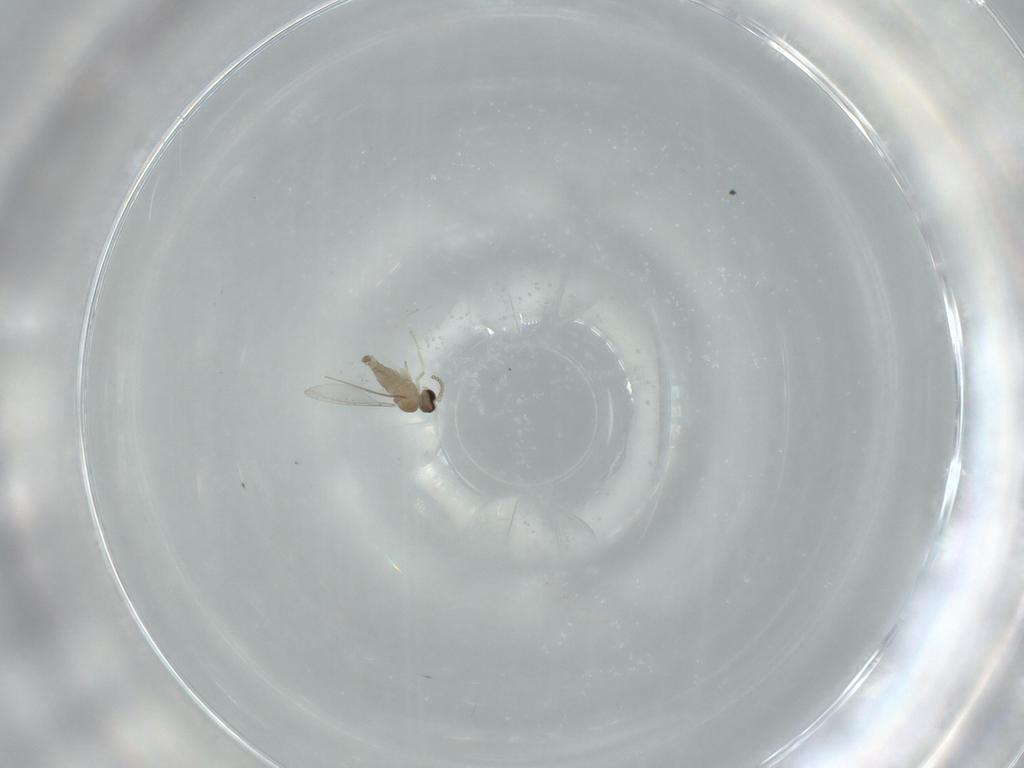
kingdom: Animalia
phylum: Arthropoda
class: Insecta
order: Diptera
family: Cecidomyiidae
